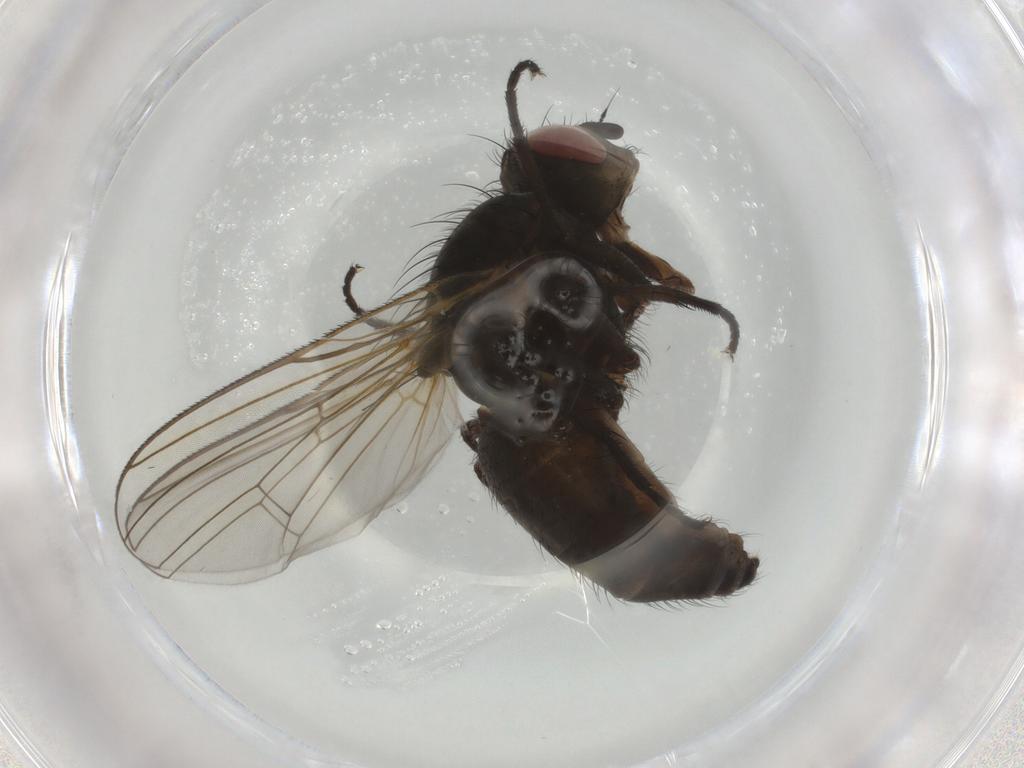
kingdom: Animalia
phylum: Arthropoda
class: Insecta
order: Diptera
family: Anthomyiidae
